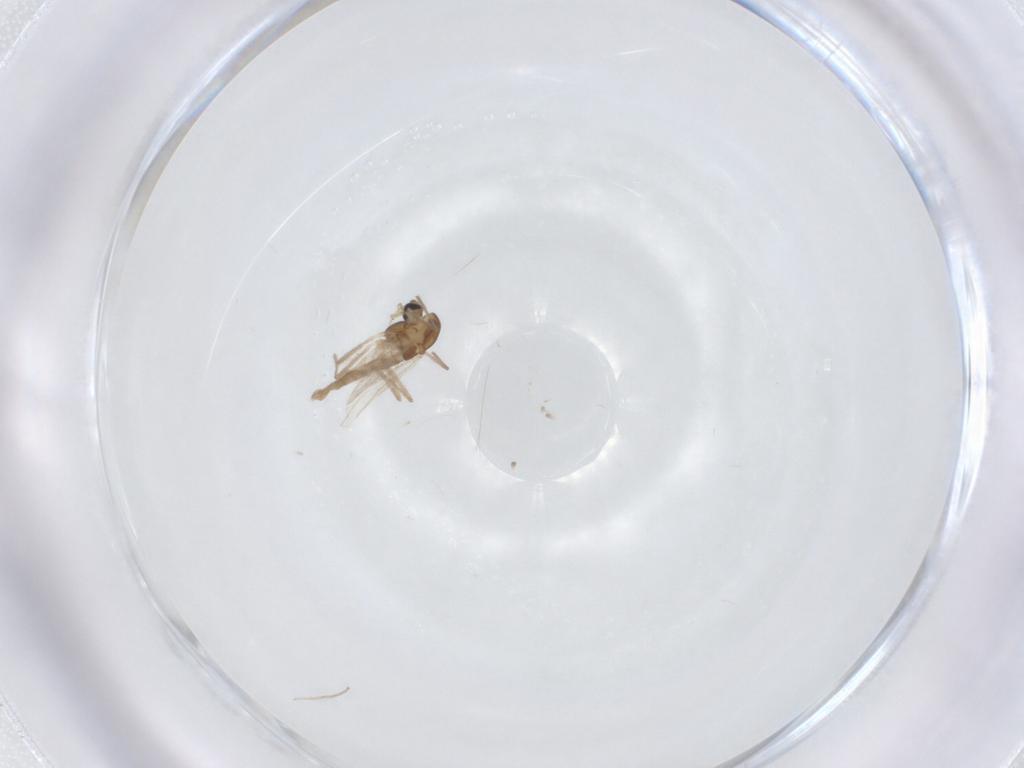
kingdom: Animalia
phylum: Arthropoda
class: Insecta
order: Diptera
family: Chironomidae
